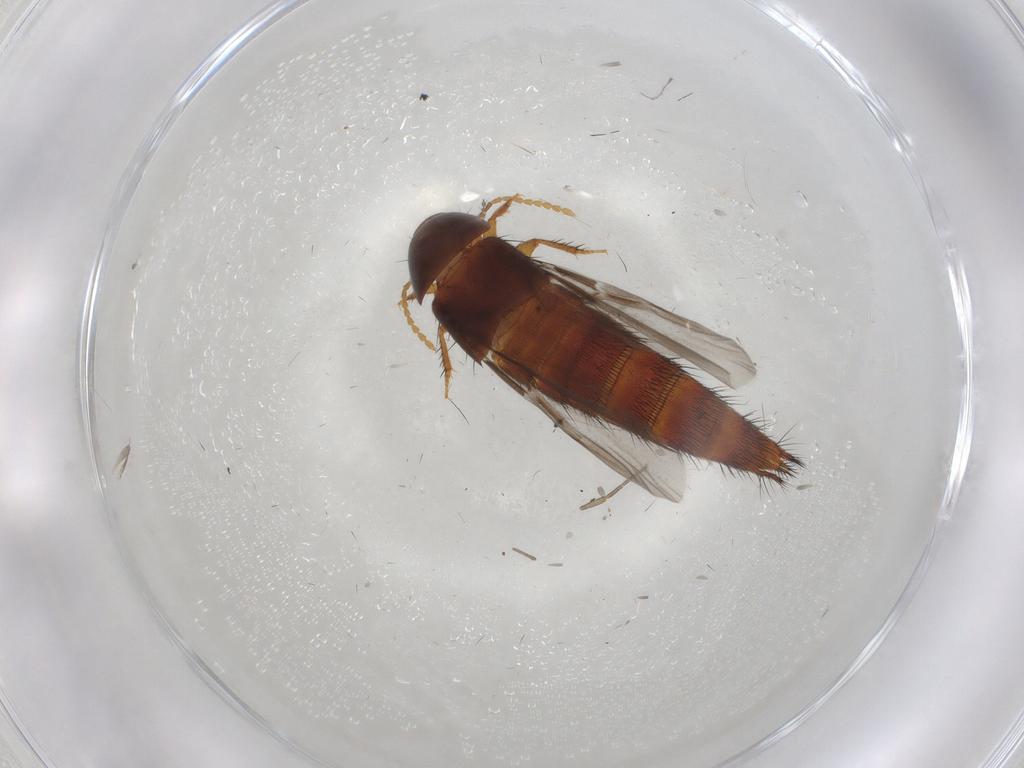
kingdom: Animalia
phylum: Arthropoda
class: Insecta
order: Coleoptera
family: Staphylinidae
